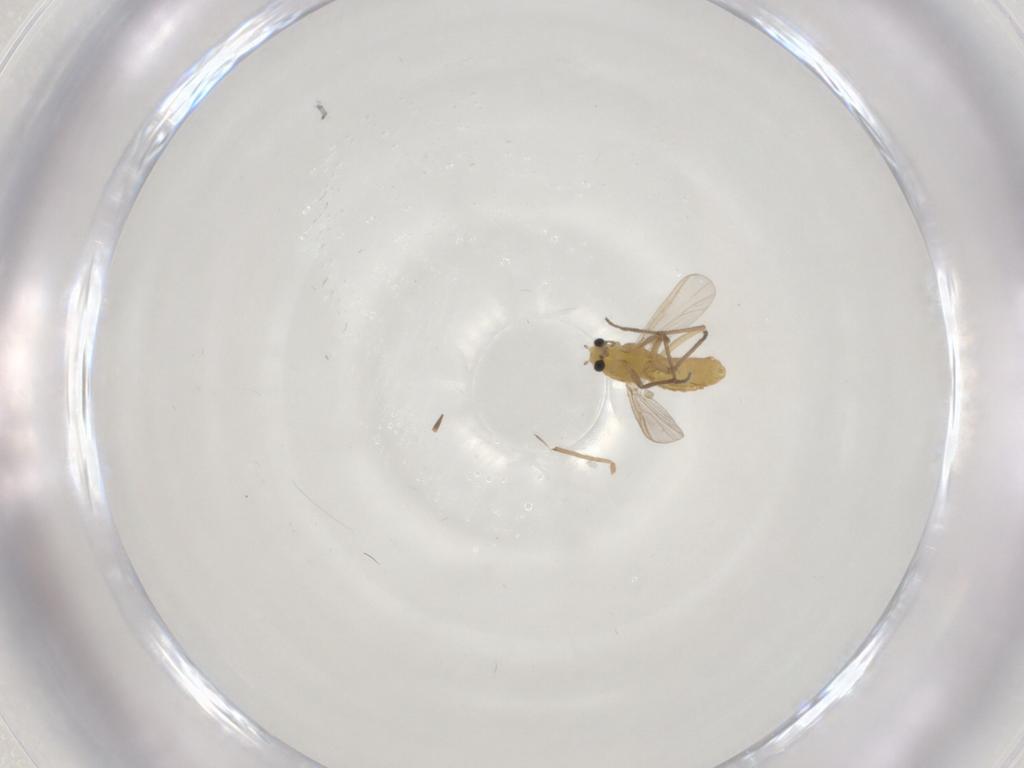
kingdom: Animalia
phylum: Arthropoda
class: Insecta
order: Diptera
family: Chironomidae
